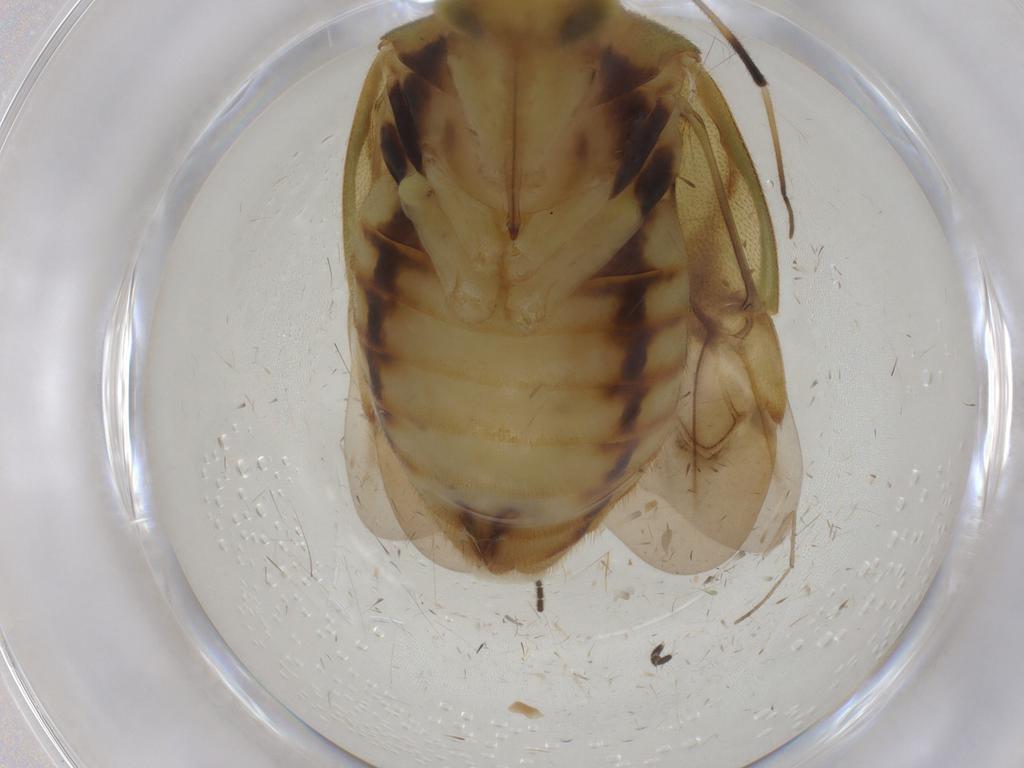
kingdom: Animalia
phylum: Arthropoda
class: Insecta
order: Hemiptera
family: Miridae
